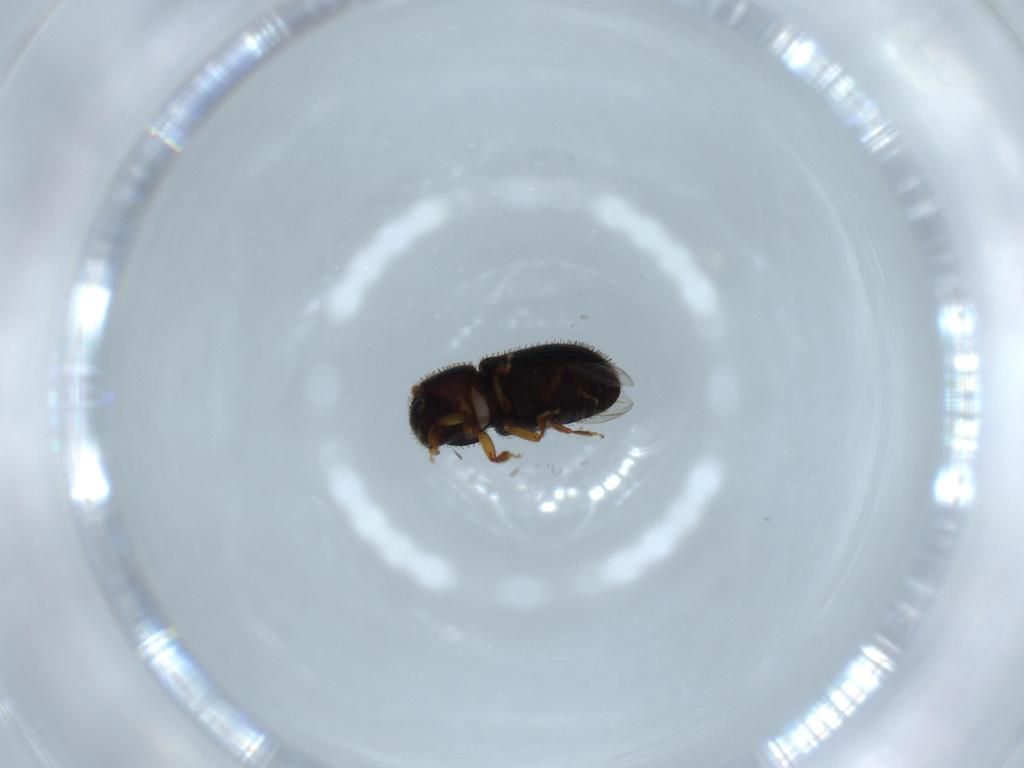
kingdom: Animalia
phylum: Arthropoda
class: Insecta
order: Coleoptera
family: Curculionidae
